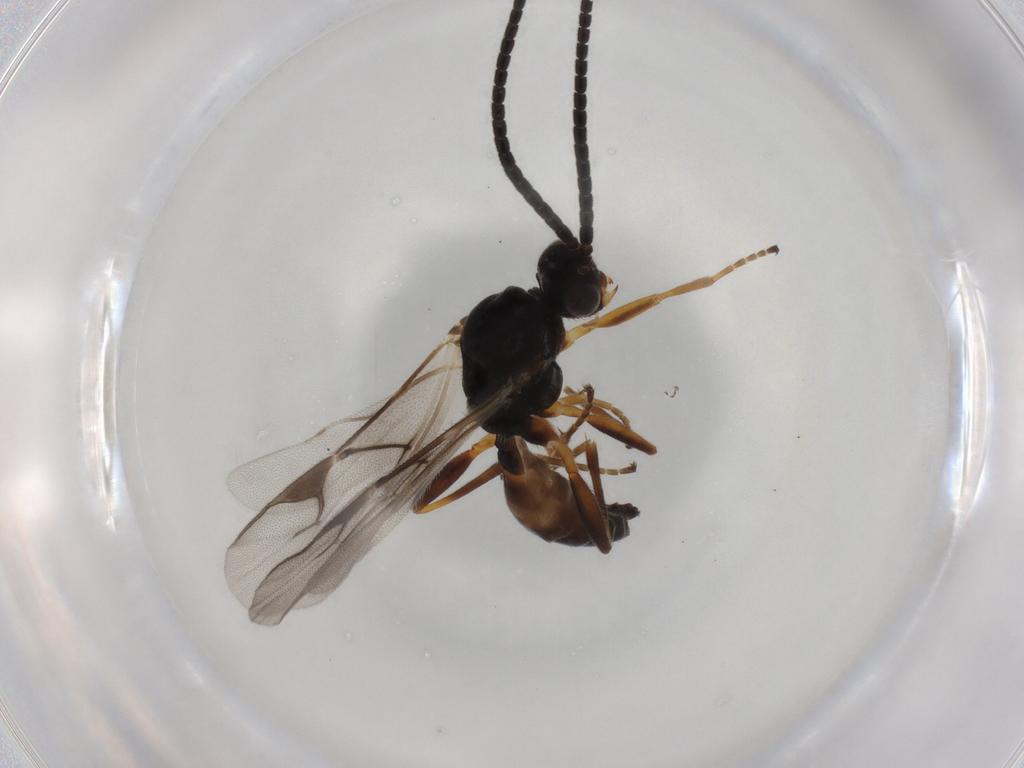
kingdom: Animalia
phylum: Arthropoda
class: Insecta
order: Hymenoptera
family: Braconidae
